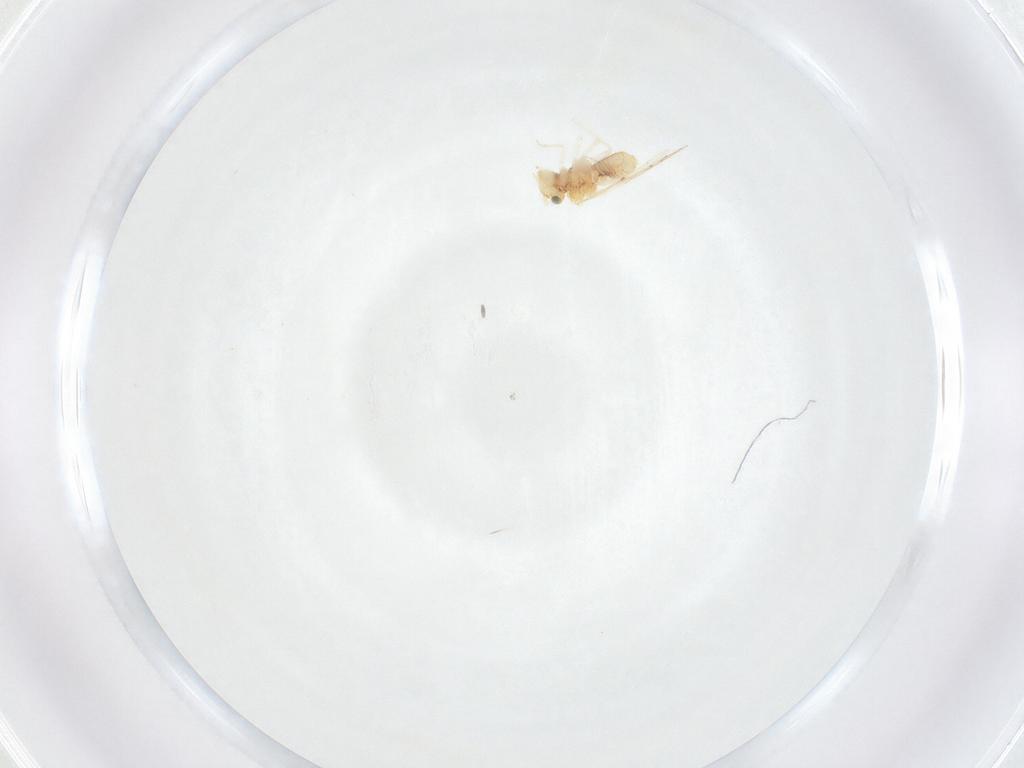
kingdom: Animalia
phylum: Arthropoda
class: Insecta
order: Psocodea
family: Lachesillidae
